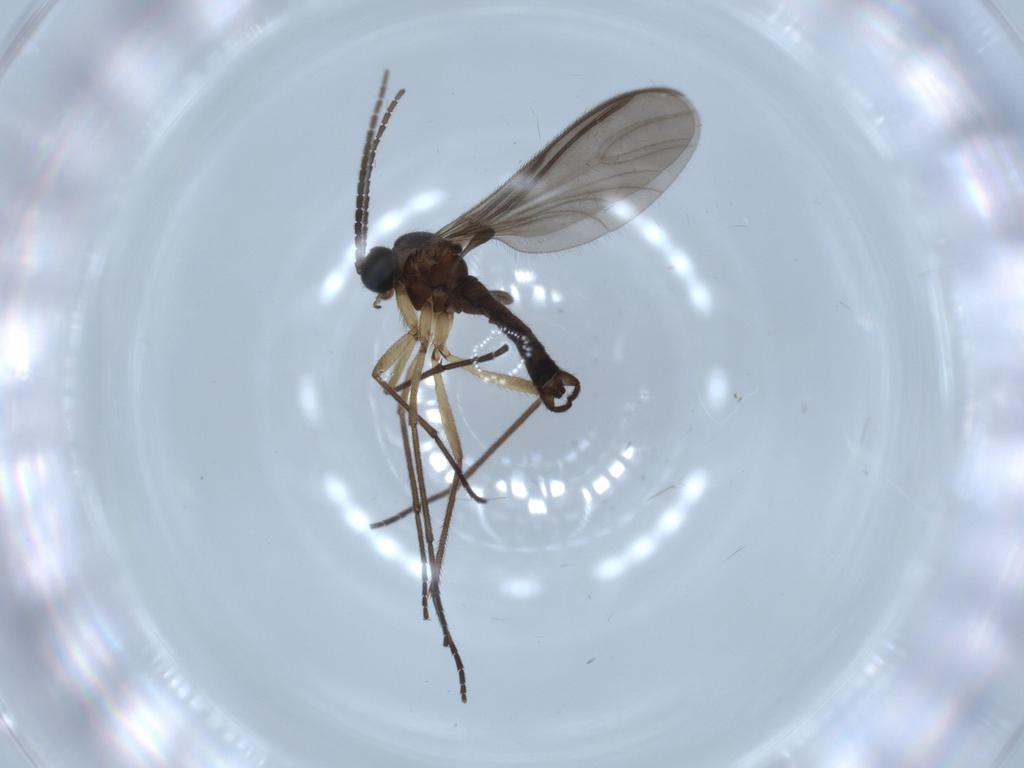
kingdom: Animalia
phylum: Arthropoda
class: Insecta
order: Diptera
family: Sciaridae
